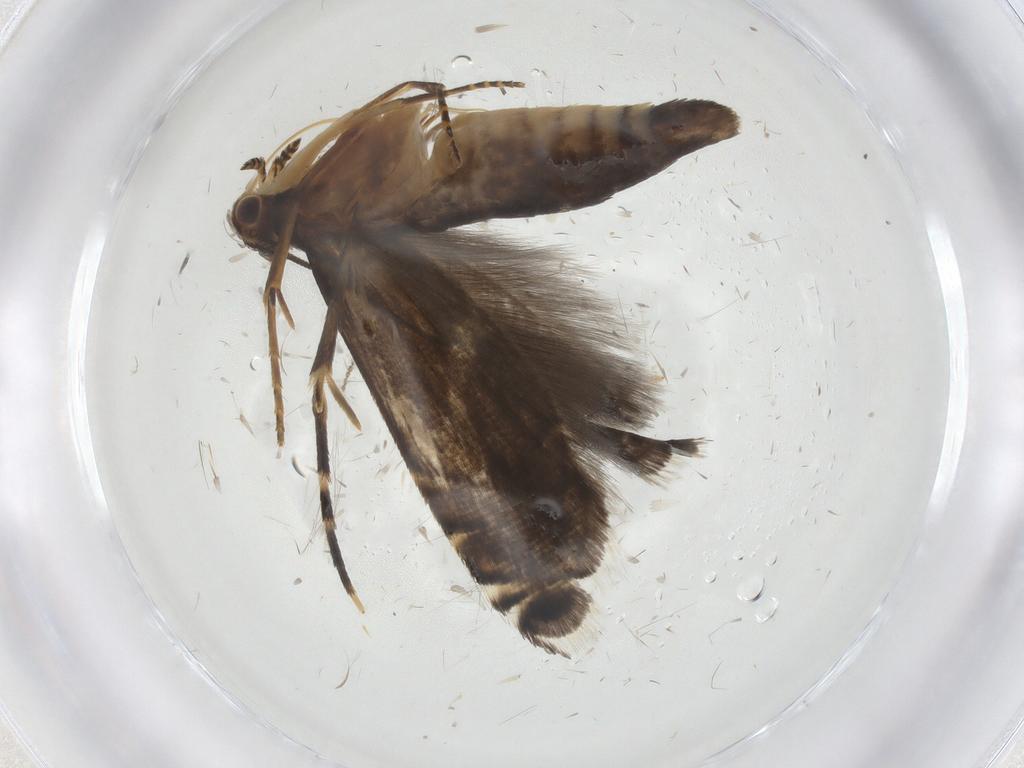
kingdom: Animalia
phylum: Arthropoda
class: Insecta
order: Lepidoptera
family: Glyphipterigidae
